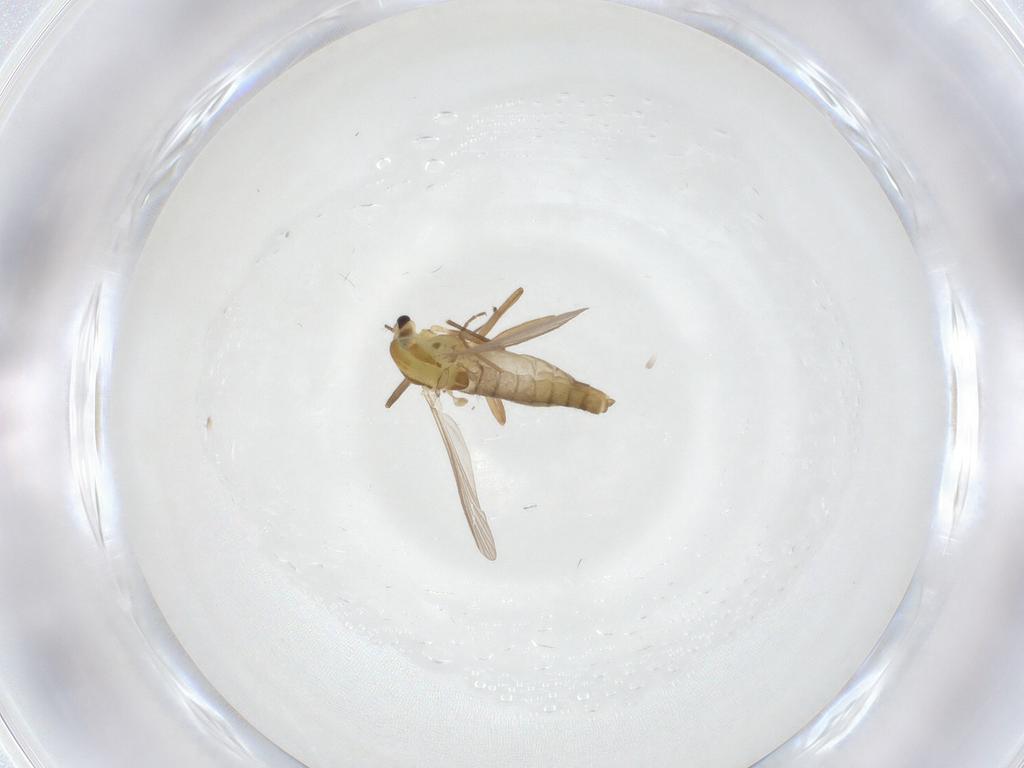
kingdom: Animalia
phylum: Arthropoda
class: Insecta
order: Diptera
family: Chironomidae
